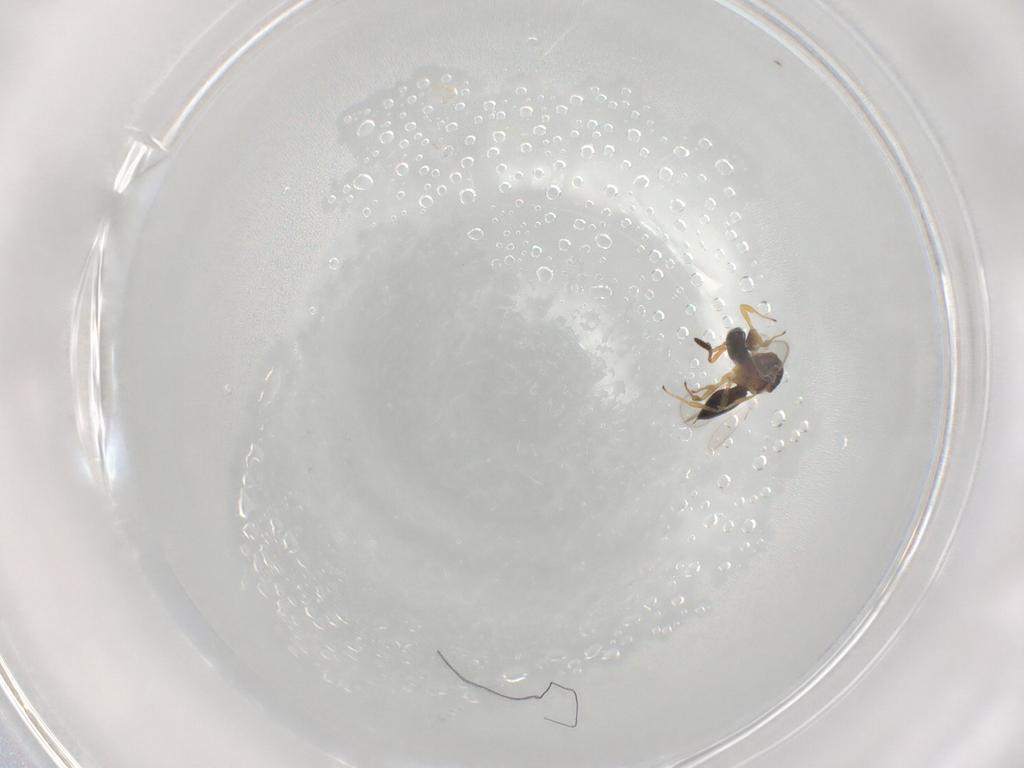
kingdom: Animalia
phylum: Arthropoda
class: Insecta
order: Hymenoptera
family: Scelionidae
